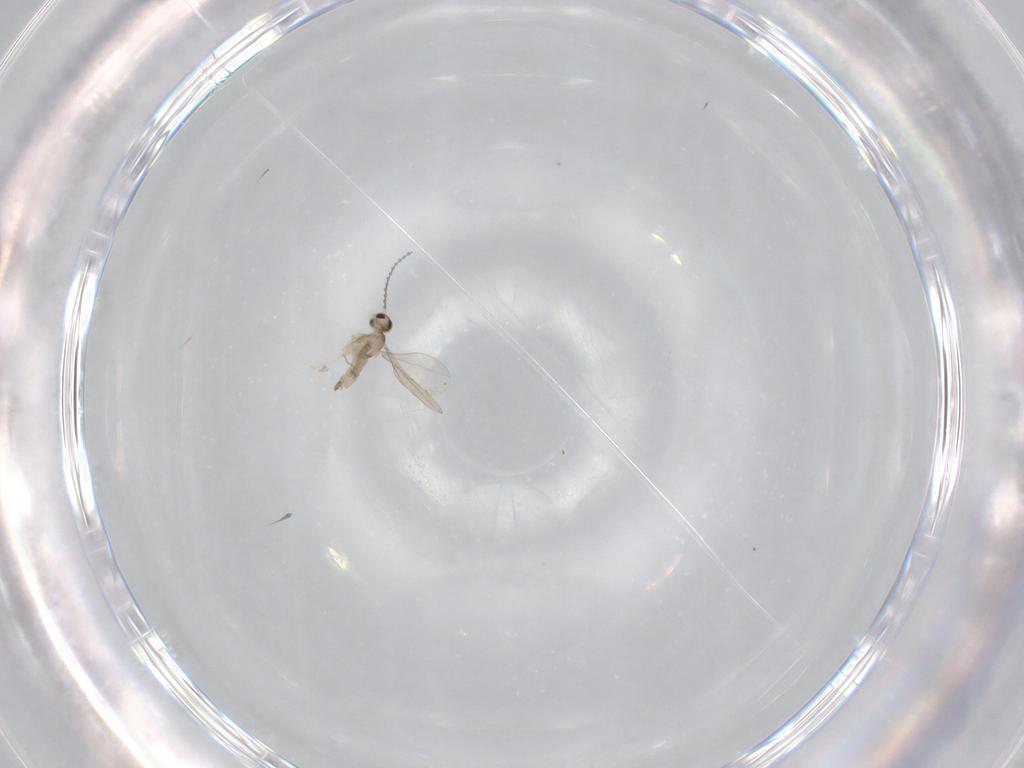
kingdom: Animalia
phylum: Arthropoda
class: Insecta
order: Diptera
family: Cecidomyiidae
